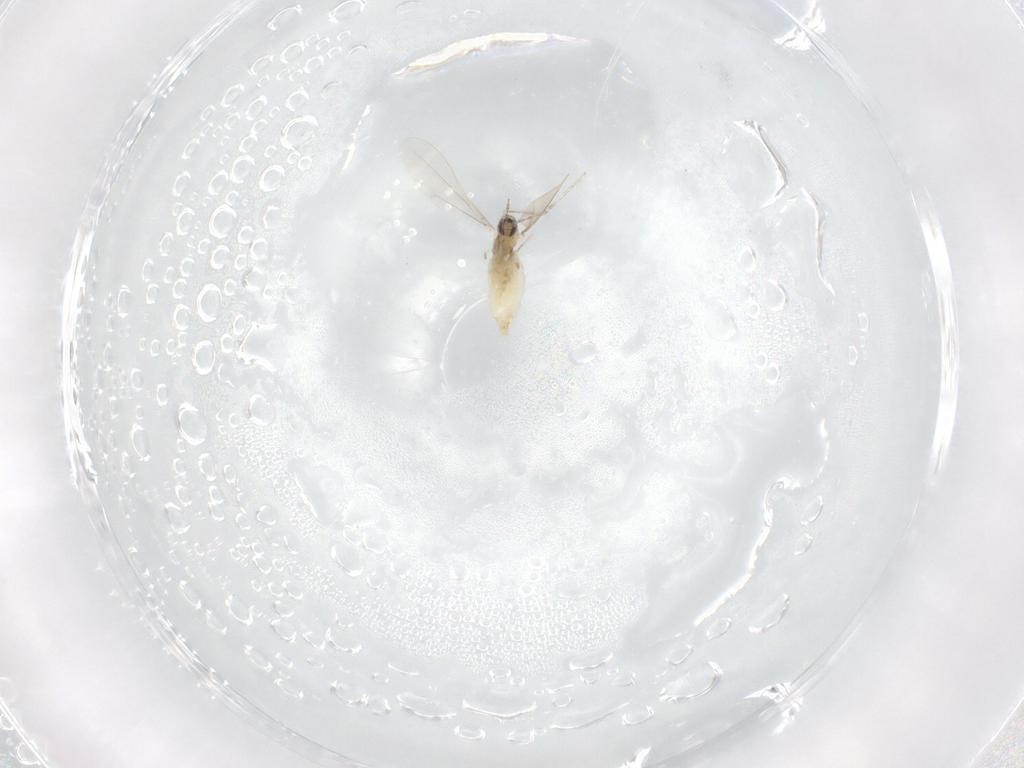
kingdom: Animalia
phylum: Arthropoda
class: Insecta
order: Diptera
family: Cecidomyiidae
